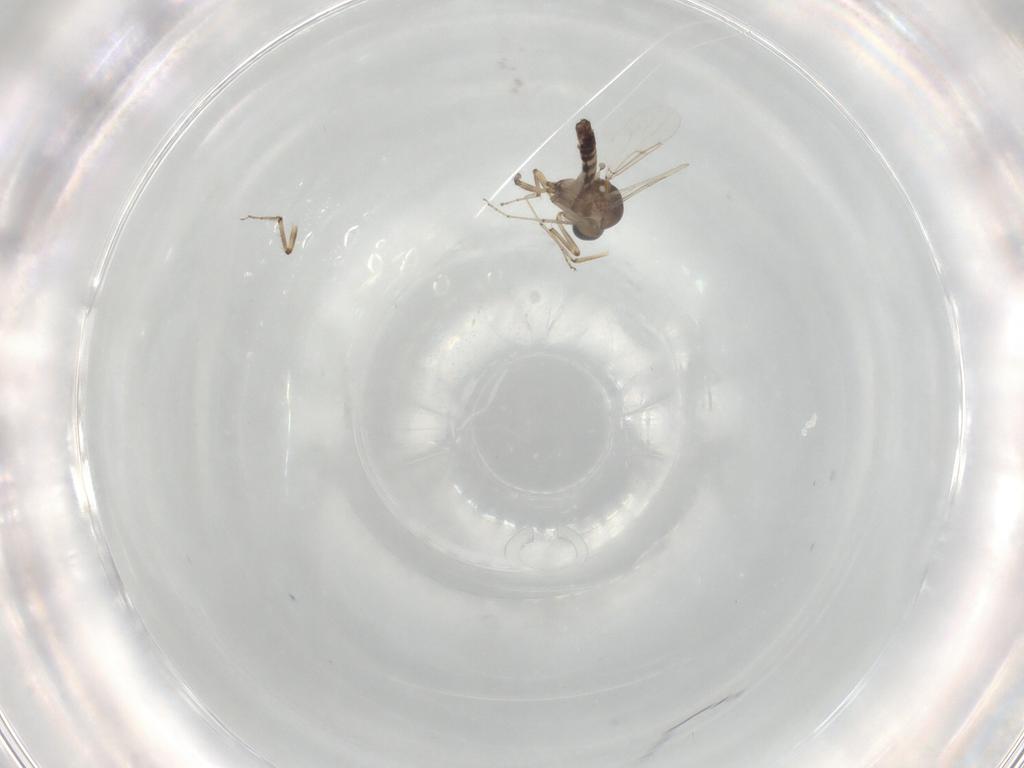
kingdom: Animalia
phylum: Arthropoda
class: Insecta
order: Diptera
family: Ceratopogonidae
